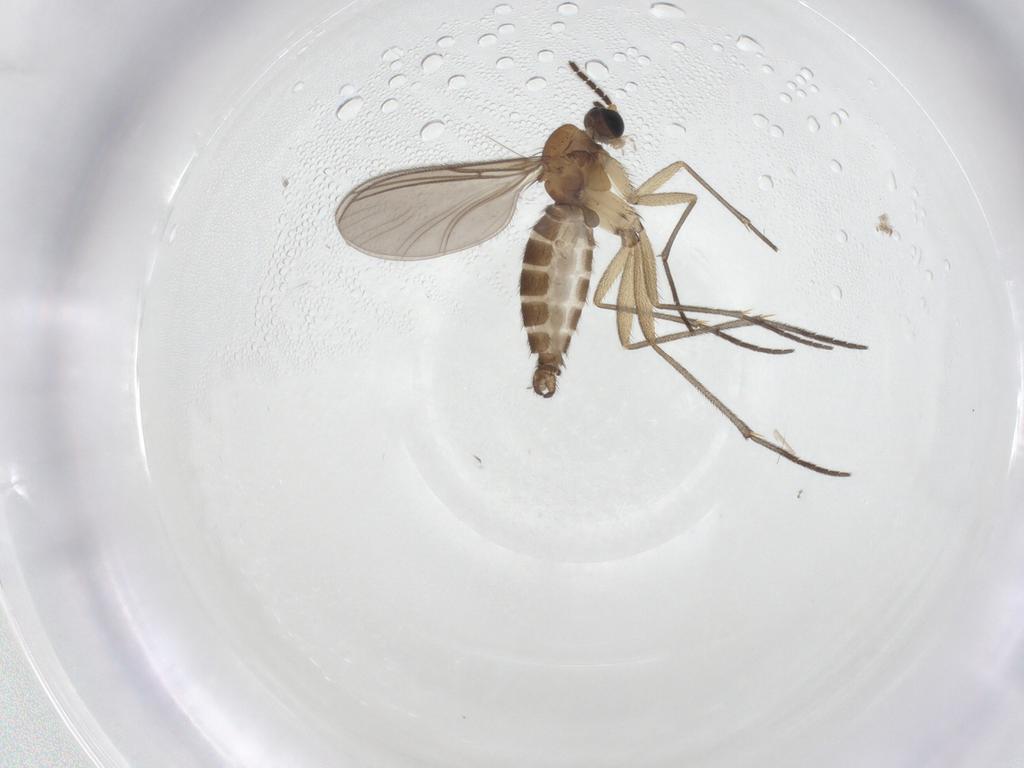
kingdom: Animalia
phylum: Arthropoda
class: Insecta
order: Diptera
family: Sciaridae
